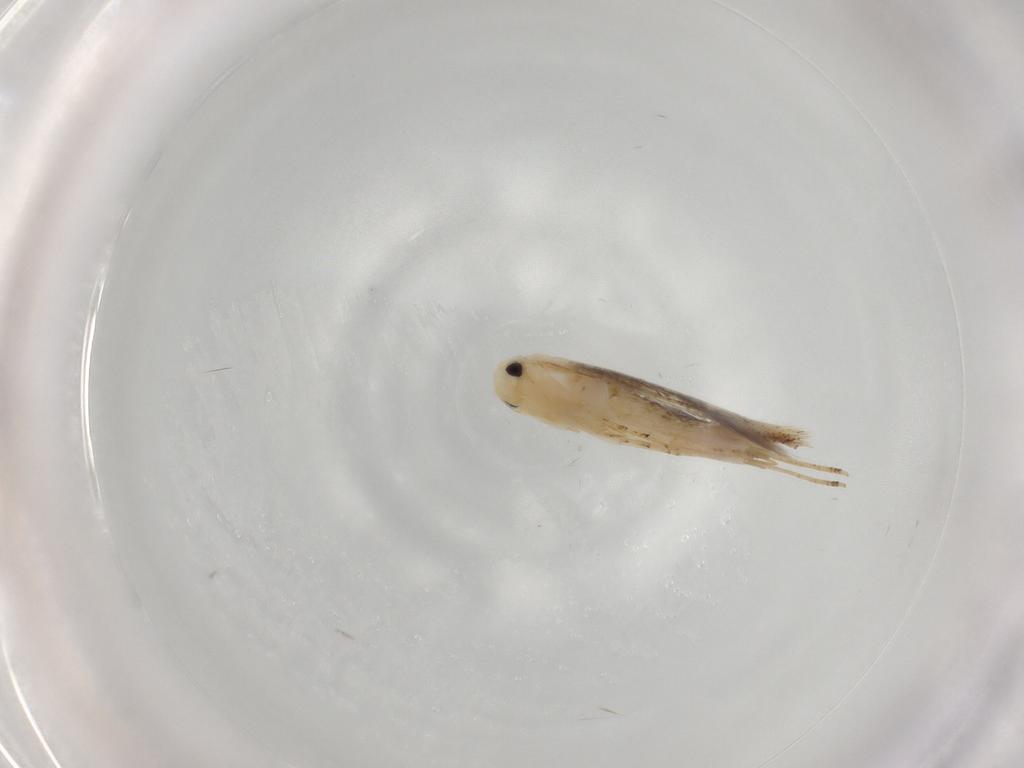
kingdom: Animalia
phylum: Arthropoda
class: Insecta
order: Lepidoptera
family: Bucculatricidae
